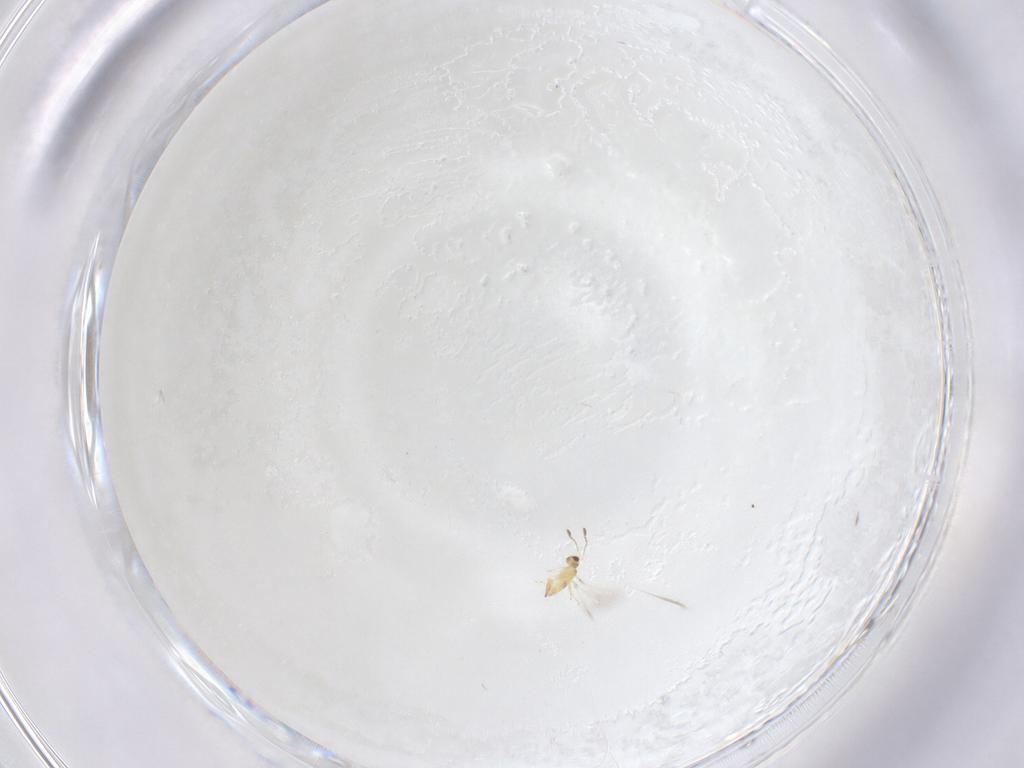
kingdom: Animalia
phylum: Arthropoda
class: Insecta
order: Hymenoptera
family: Mymaridae
